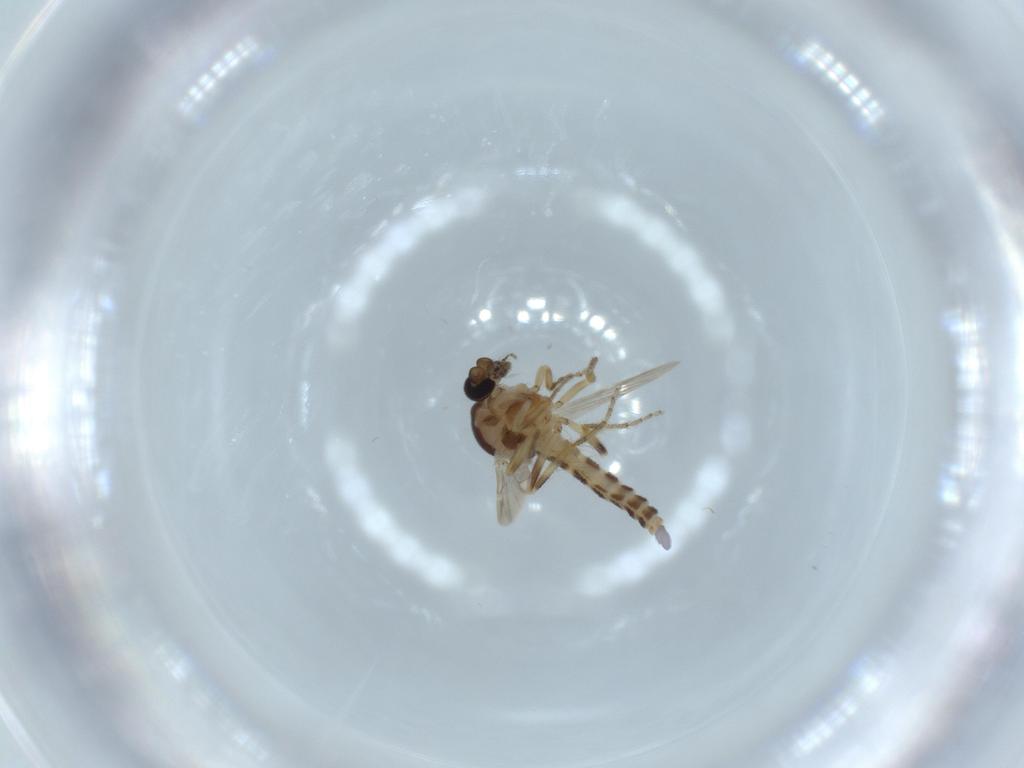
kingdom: Animalia
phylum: Arthropoda
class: Insecta
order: Diptera
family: Ceratopogonidae
